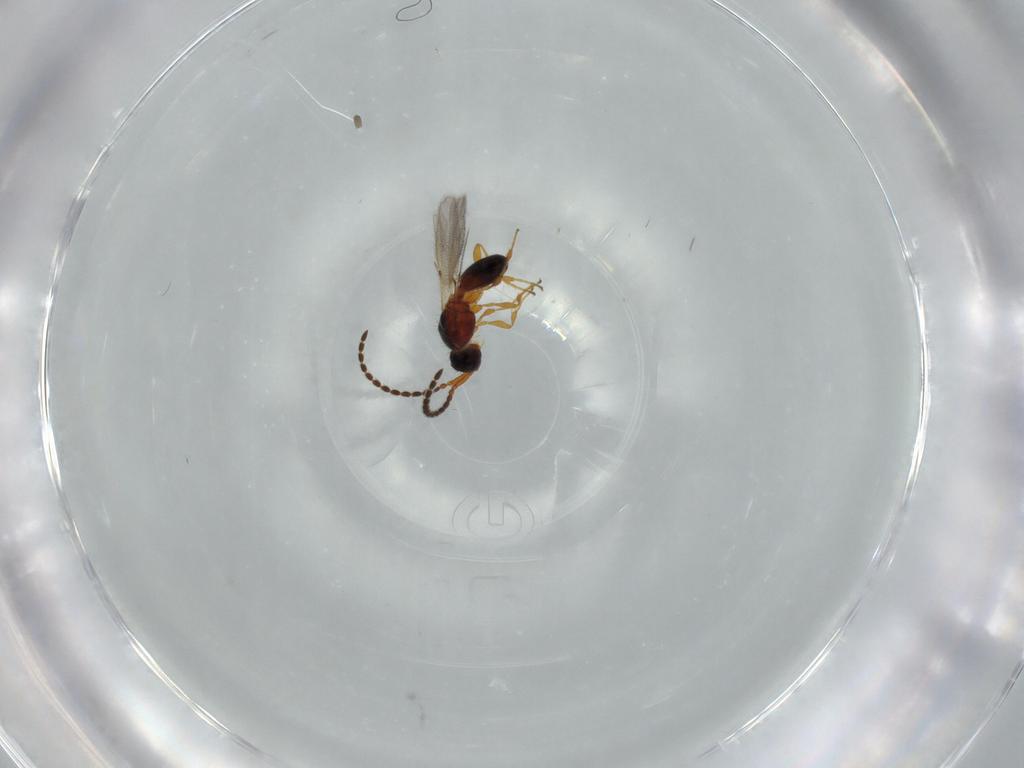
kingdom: Animalia
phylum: Arthropoda
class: Insecta
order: Hymenoptera
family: Diapriidae
